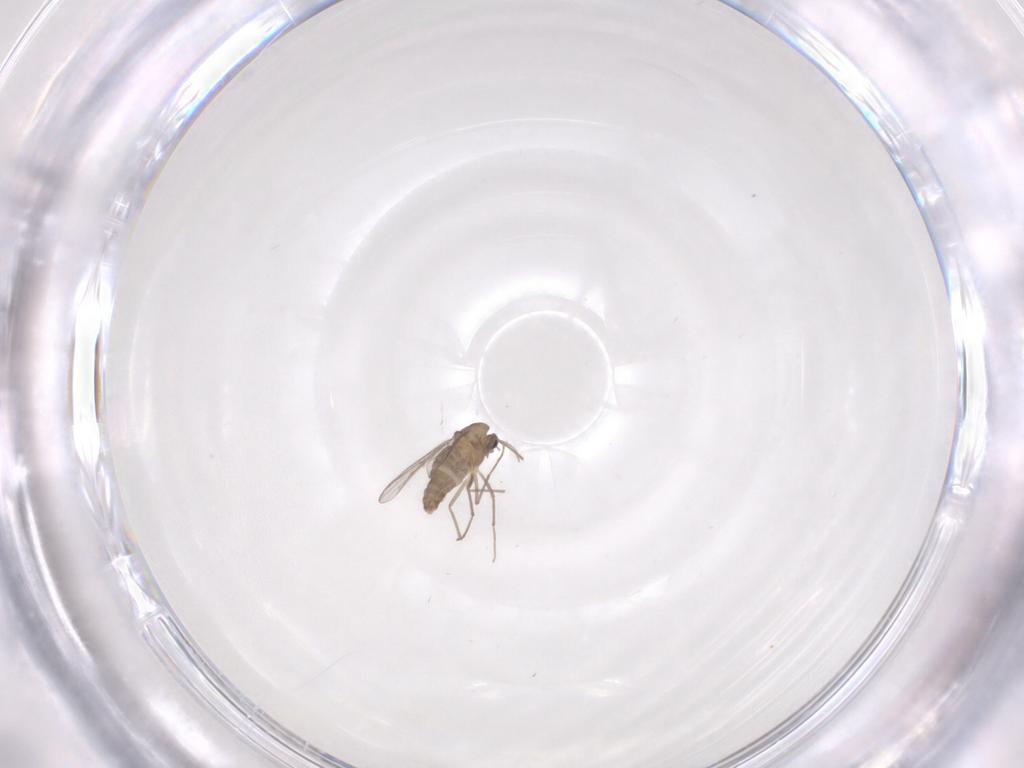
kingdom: Animalia
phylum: Arthropoda
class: Insecta
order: Diptera
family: Chironomidae
